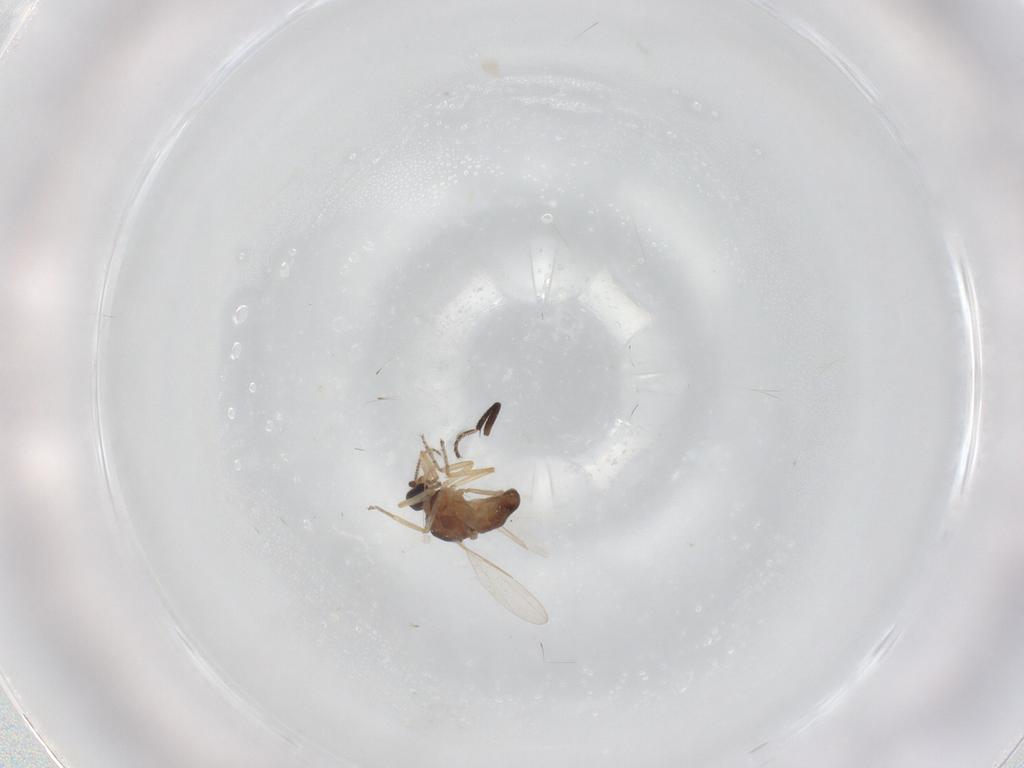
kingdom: Animalia
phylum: Arthropoda
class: Insecta
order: Diptera
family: Ceratopogonidae
